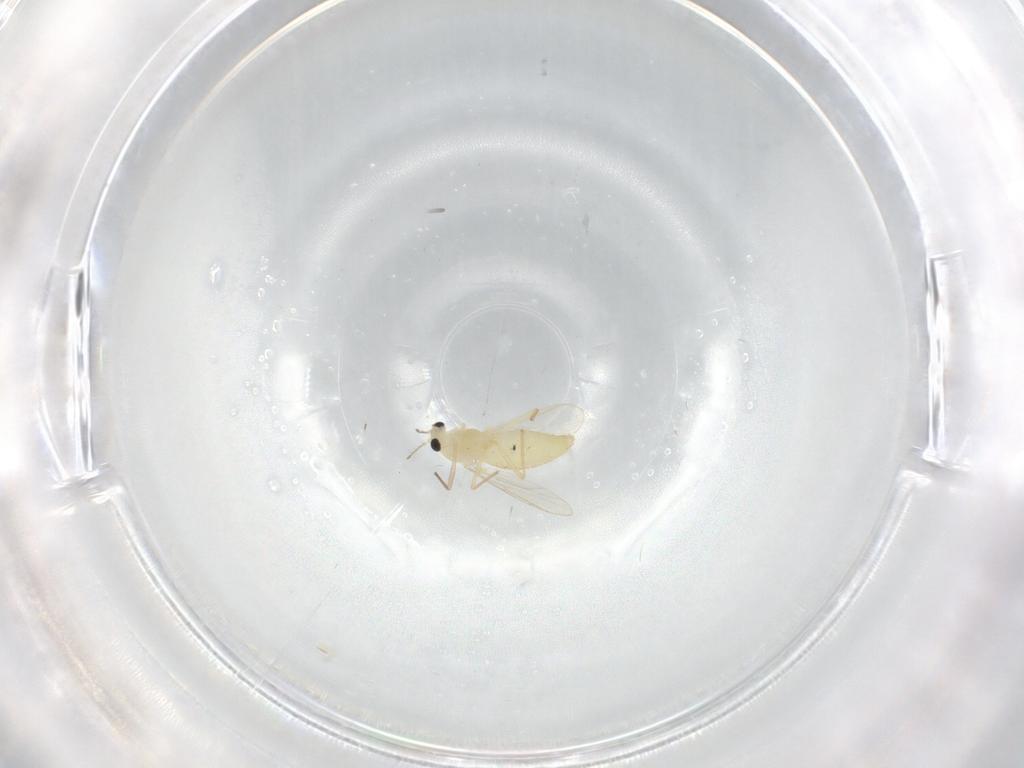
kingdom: Animalia
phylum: Arthropoda
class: Insecta
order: Diptera
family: Chironomidae
